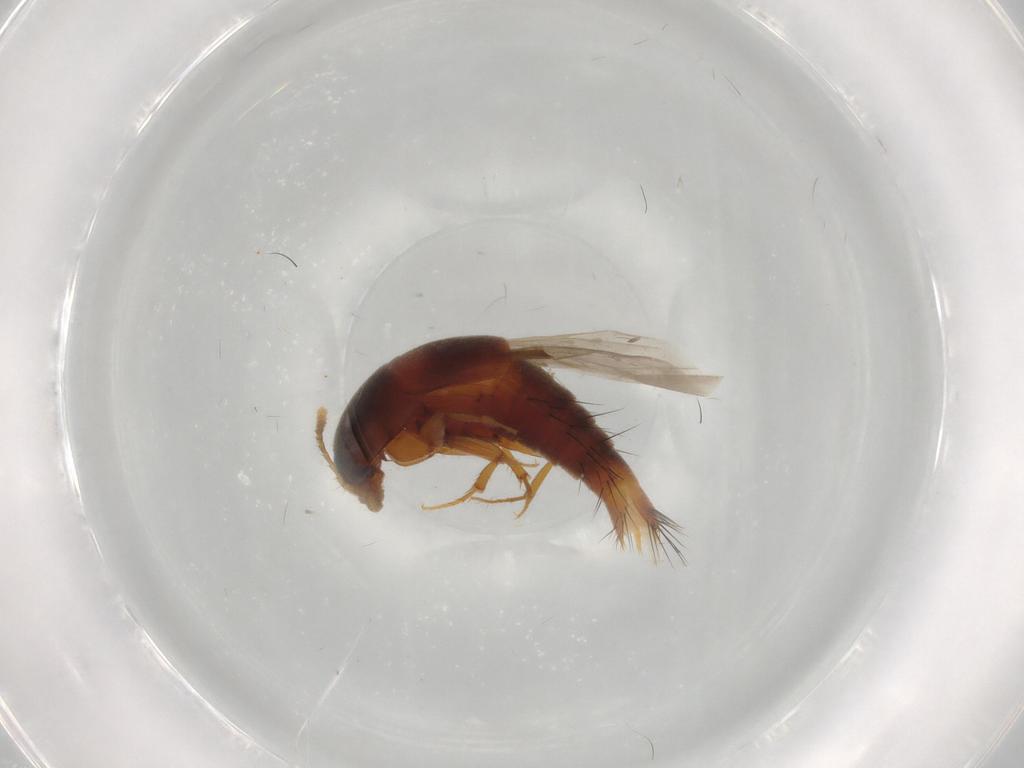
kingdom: Animalia
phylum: Arthropoda
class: Insecta
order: Coleoptera
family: Staphylinidae
